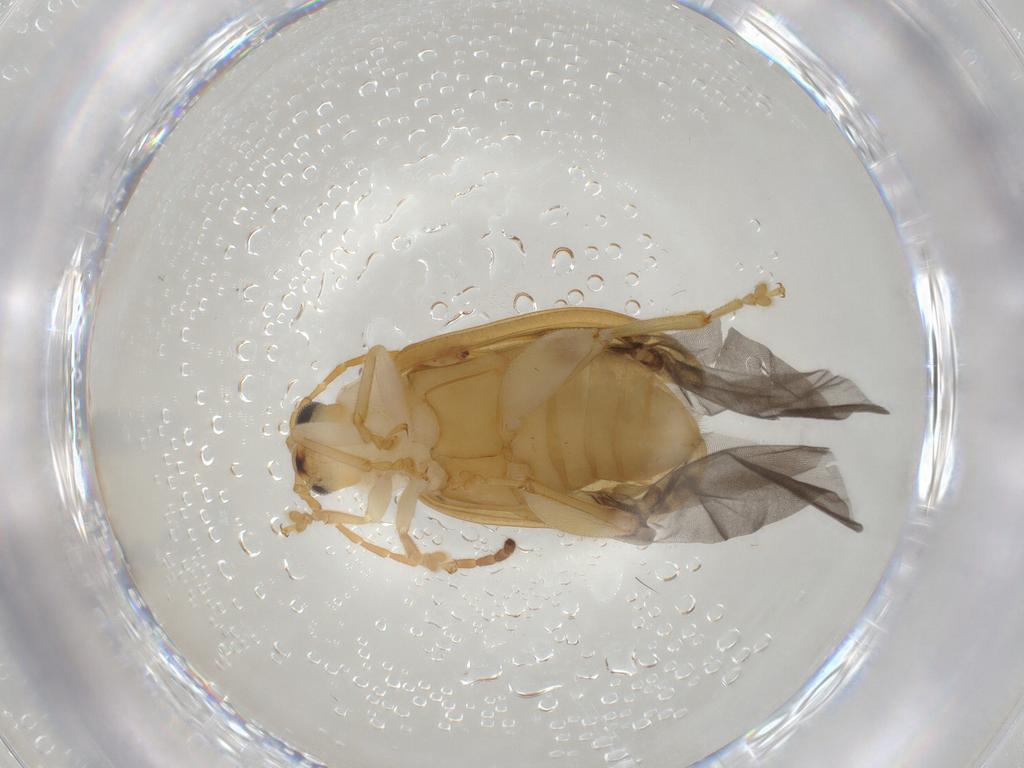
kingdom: Animalia
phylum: Arthropoda
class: Insecta
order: Coleoptera
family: Chrysomelidae
